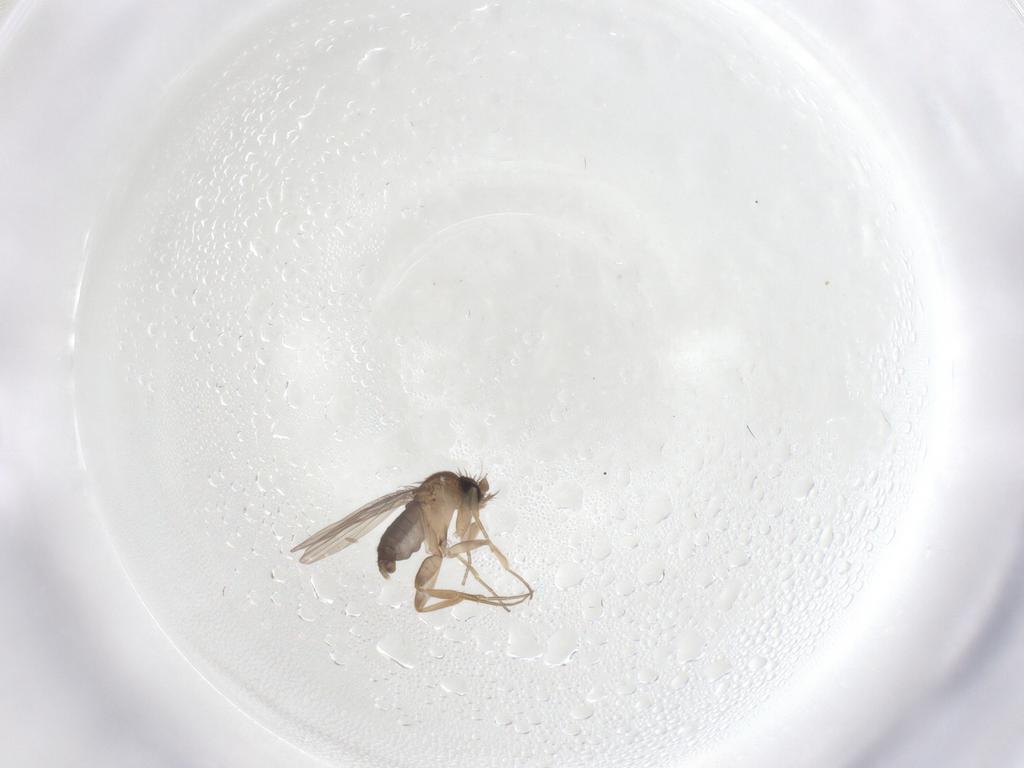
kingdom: Animalia
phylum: Arthropoda
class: Insecta
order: Diptera
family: Phoridae
